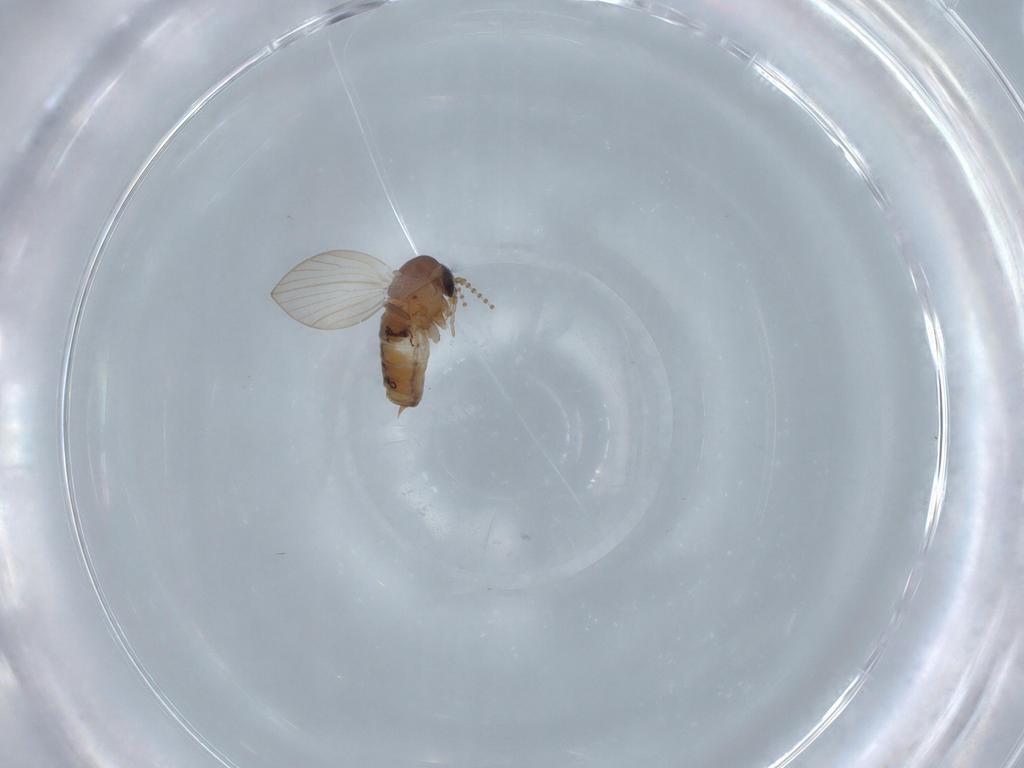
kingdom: Animalia
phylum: Arthropoda
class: Insecta
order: Diptera
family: Psychodidae
